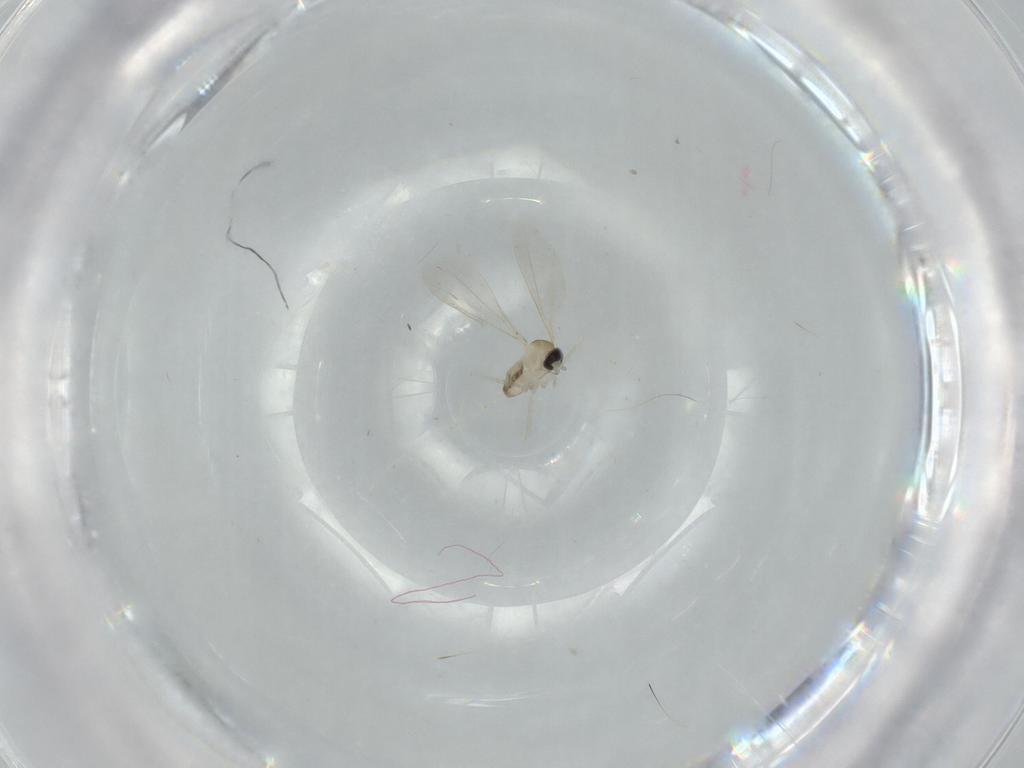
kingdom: Animalia
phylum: Arthropoda
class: Insecta
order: Diptera
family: Cecidomyiidae
